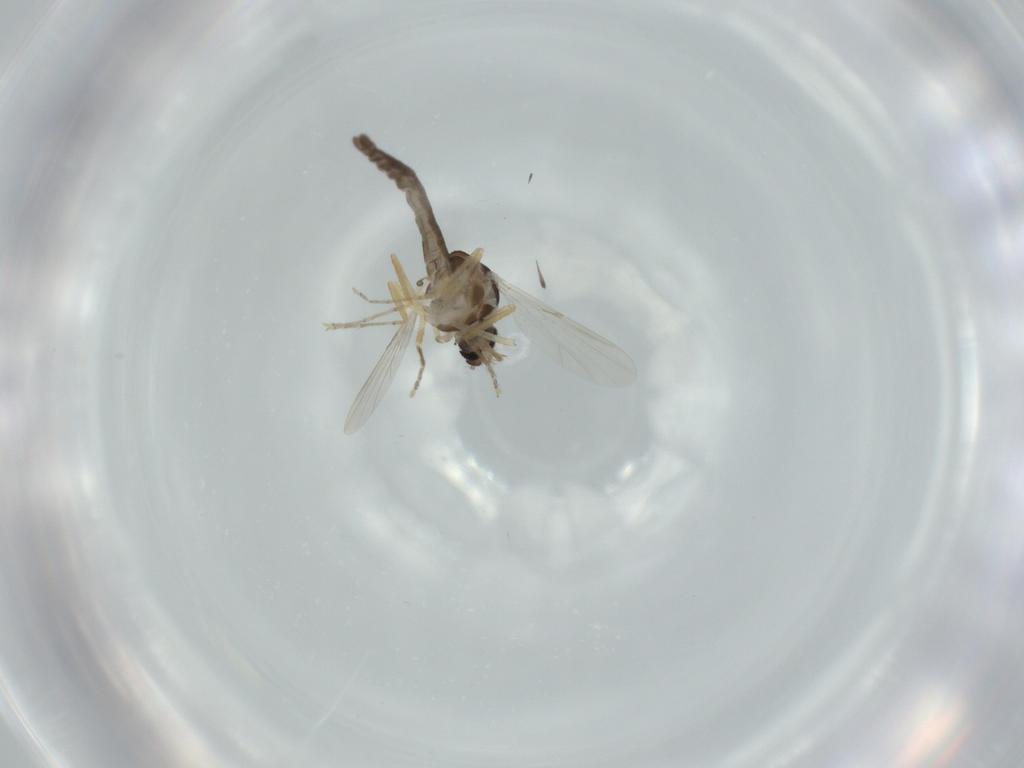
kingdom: Animalia
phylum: Arthropoda
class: Insecta
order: Diptera
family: Ceratopogonidae
